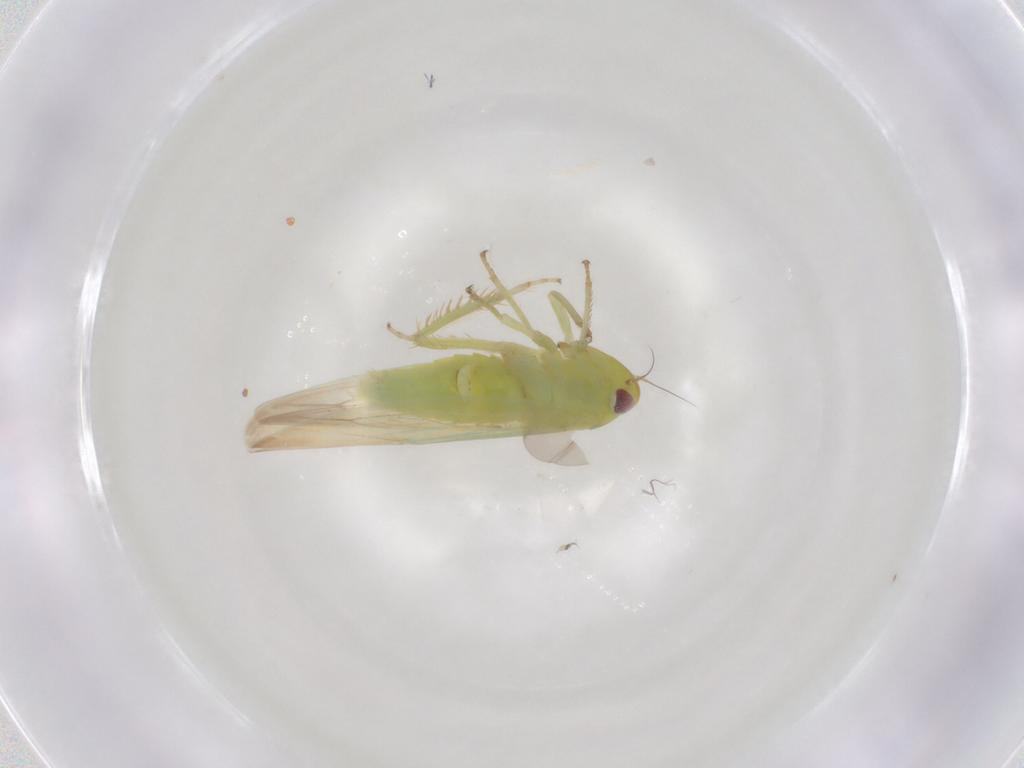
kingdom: Animalia
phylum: Arthropoda
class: Insecta
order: Hemiptera
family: Cicadellidae
